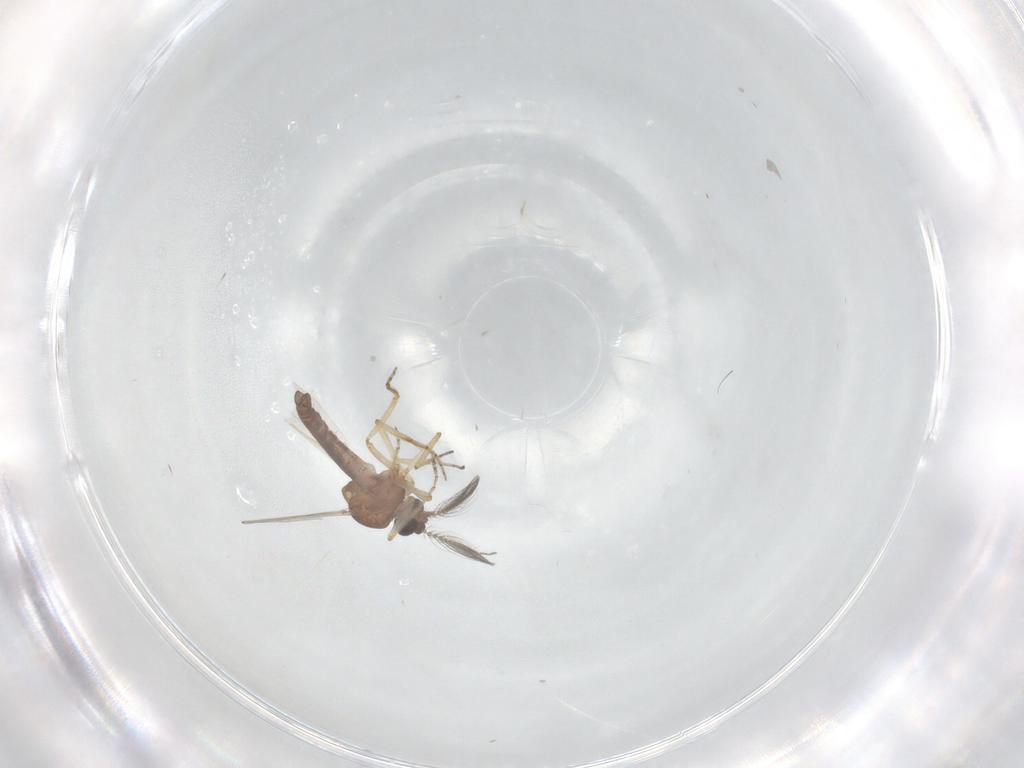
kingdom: Animalia
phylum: Arthropoda
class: Insecta
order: Diptera
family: Ceratopogonidae
